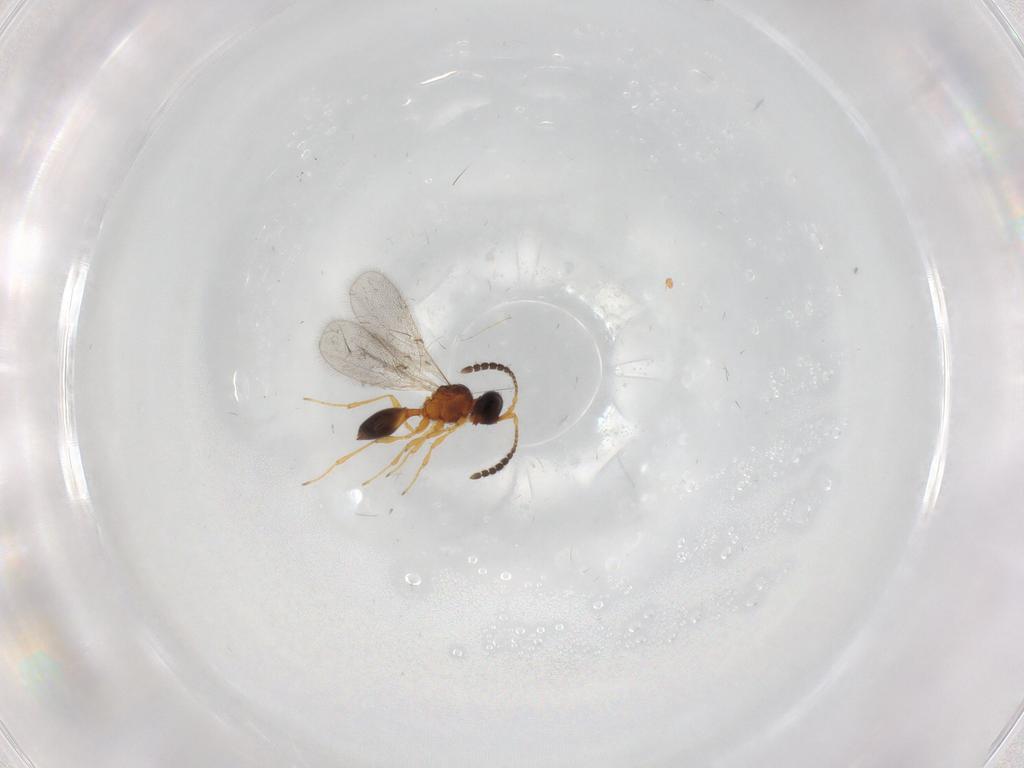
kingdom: Animalia
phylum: Arthropoda
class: Insecta
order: Hymenoptera
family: Diapriidae
